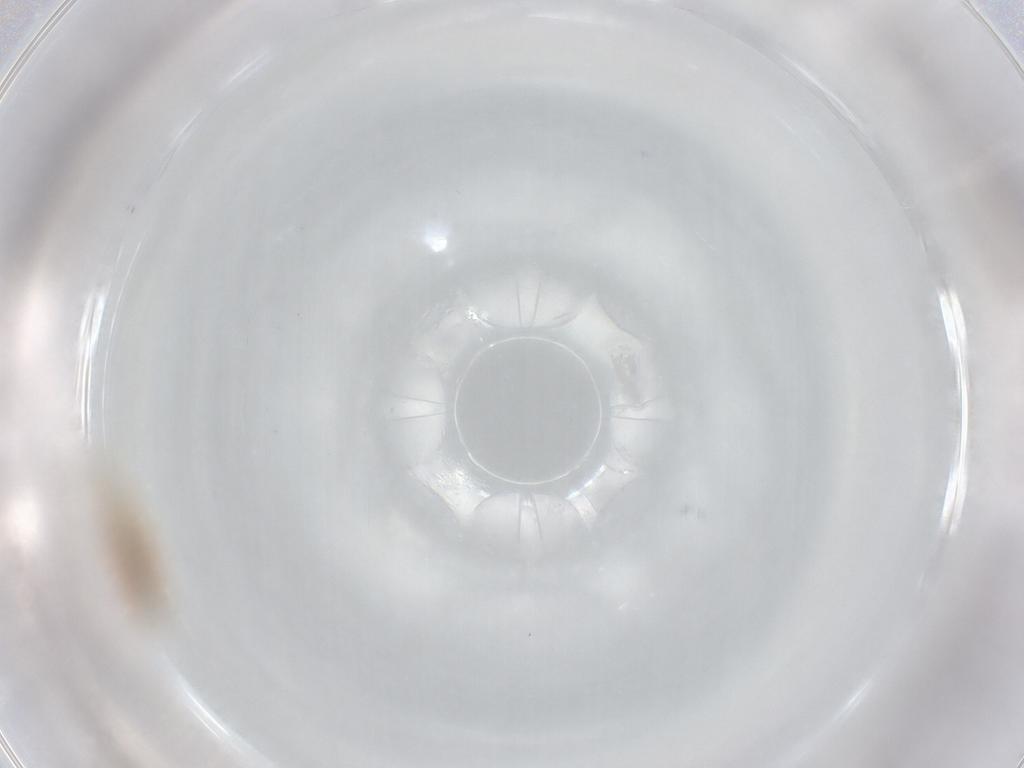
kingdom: Animalia
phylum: Arthropoda
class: Insecta
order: Diptera
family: Chironomidae
